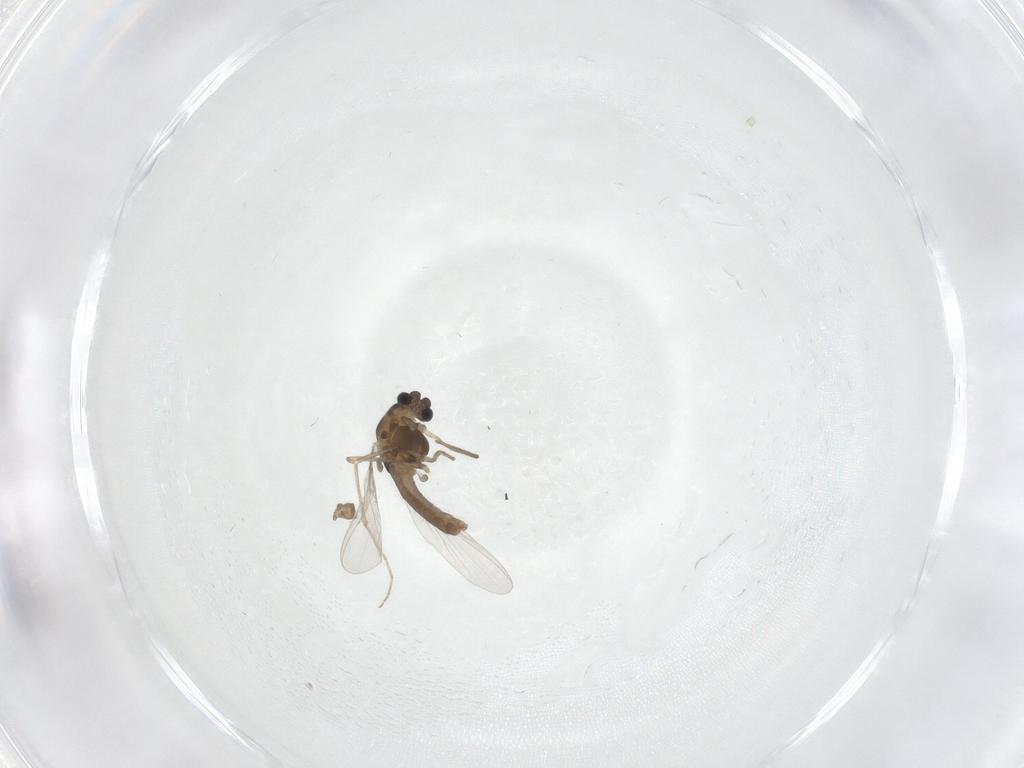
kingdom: Animalia
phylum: Arthropoda
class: Insecta
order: Diptera
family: Chironomidae
